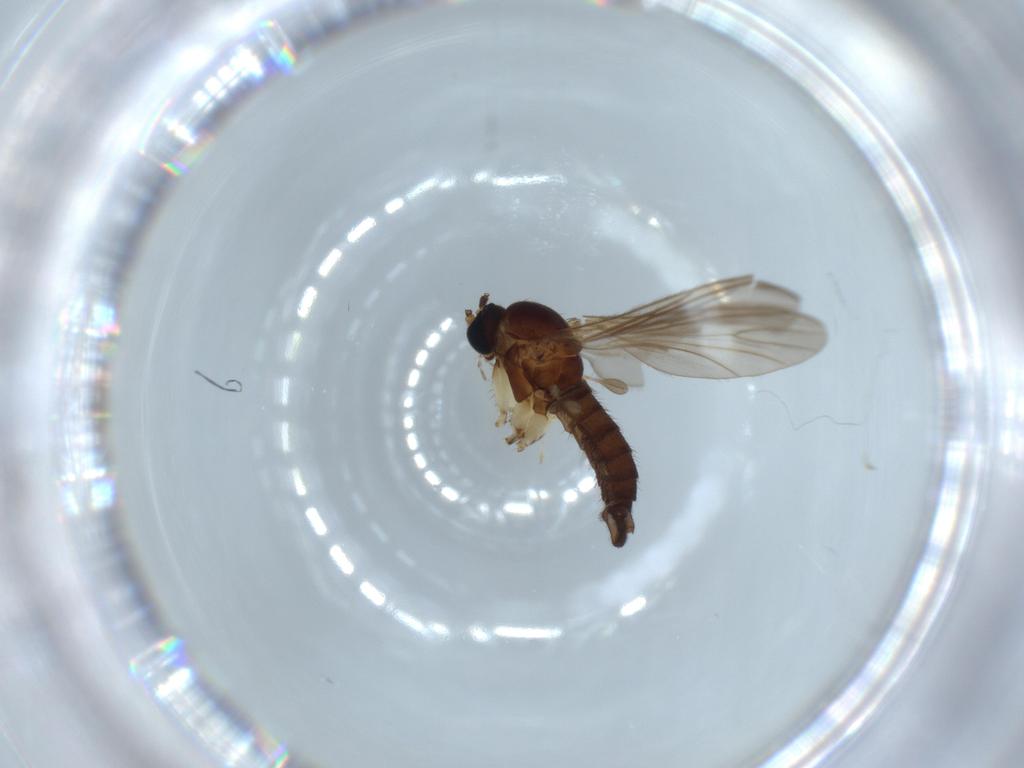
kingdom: Animalia
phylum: Arthropoda
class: Insecta
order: Diptera
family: Sciaridae
